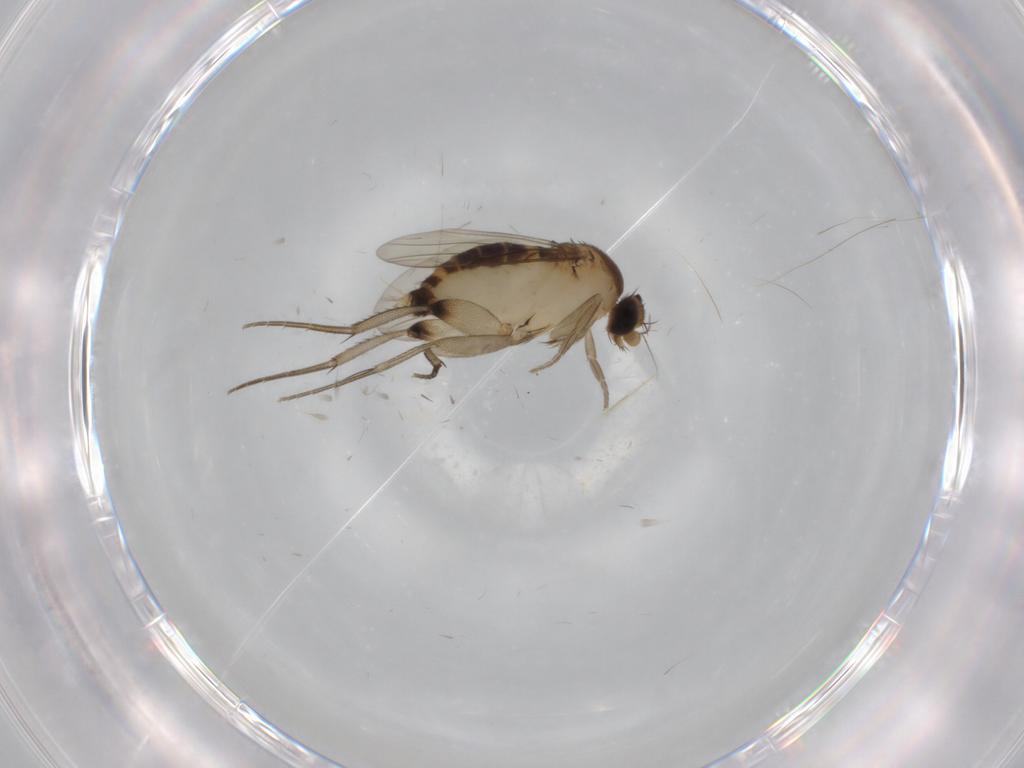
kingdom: Animalia
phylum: Arthropoda
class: Insecta
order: Diptera
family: Phoridae
